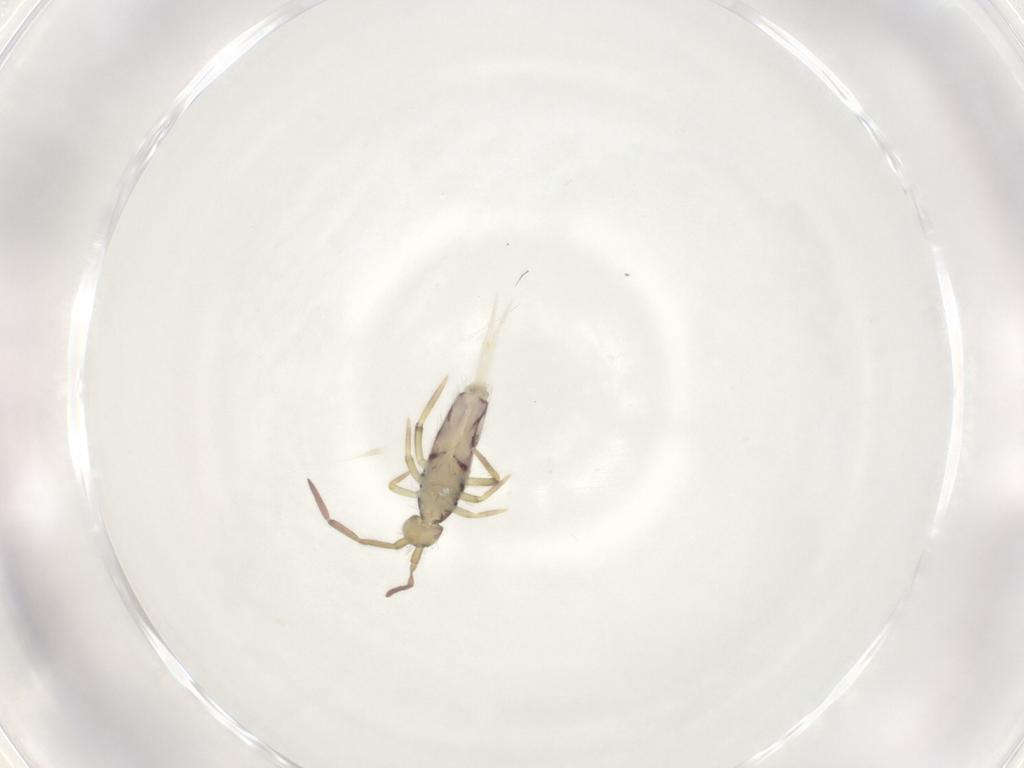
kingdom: Animalia
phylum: Arthropoda
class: Collembola
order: Entomobryomorpha
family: Entomobryidae
